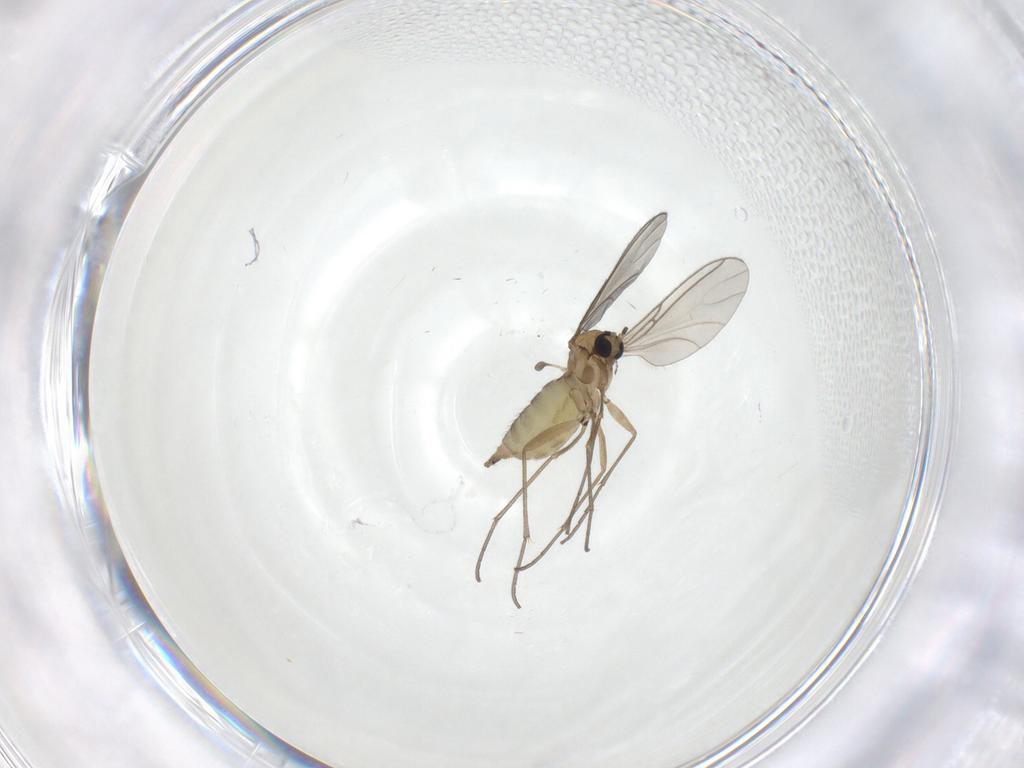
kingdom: Animalia
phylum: Arthropoda
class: Insecta
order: Diptera
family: Sciaridae
